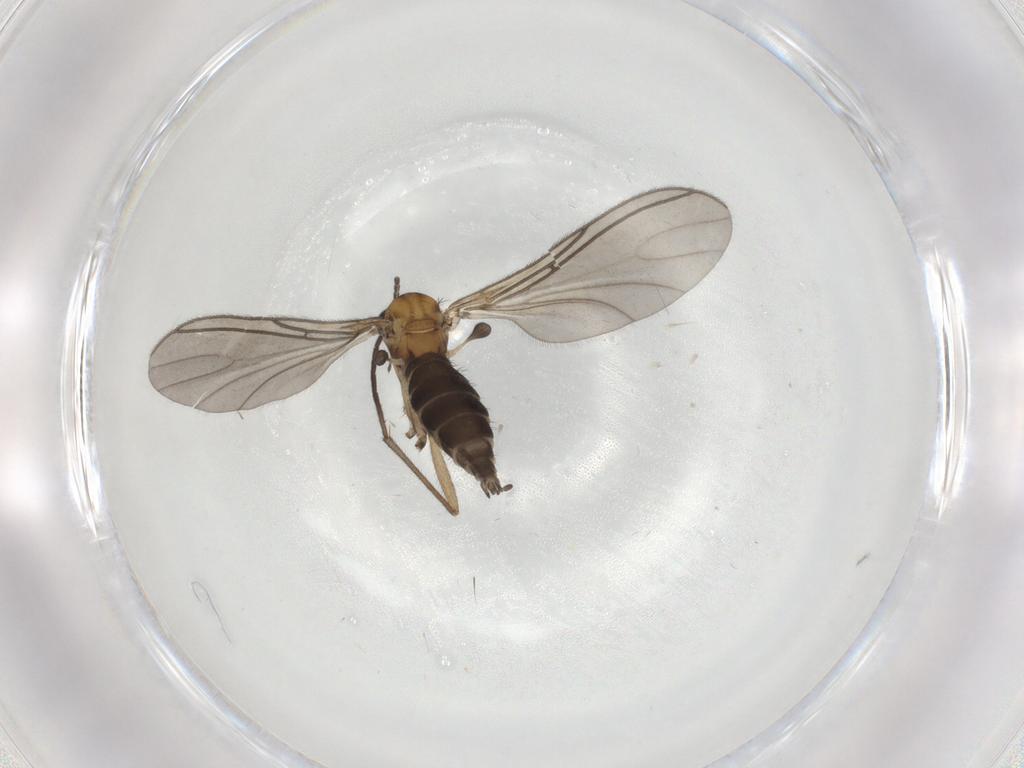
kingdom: Animalia
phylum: Arthropoda
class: Insecta
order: Diptera
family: Sciaridae
